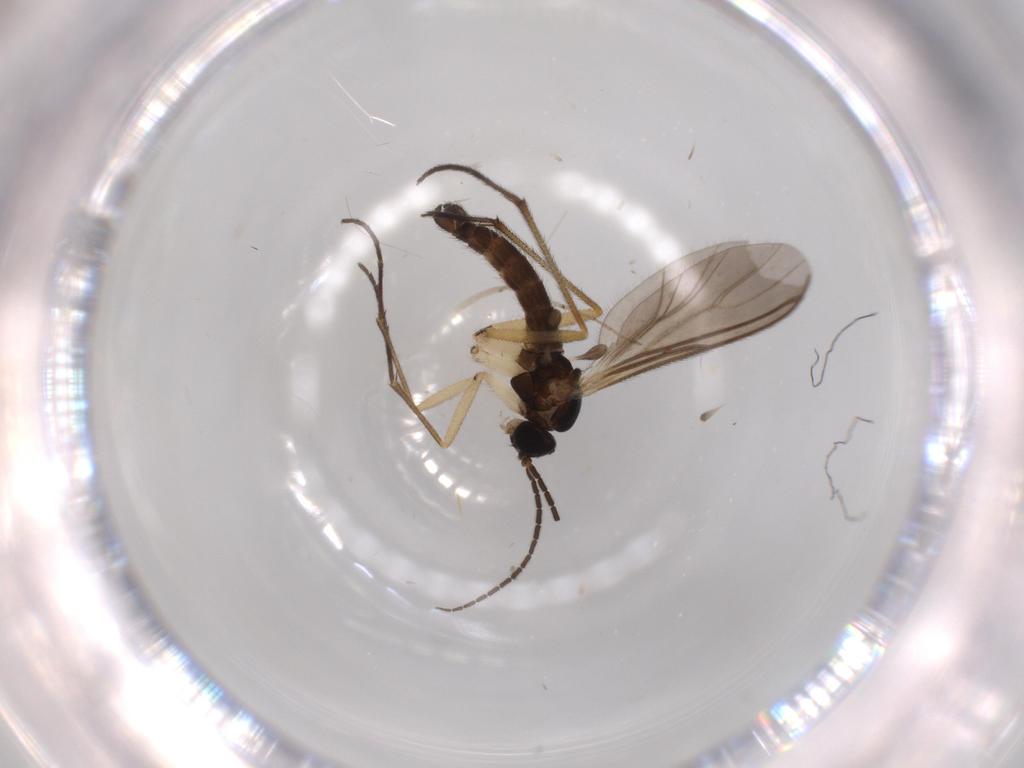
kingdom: Animalia
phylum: Arthropoda
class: Insecta
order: Diptera
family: Sciaridae
